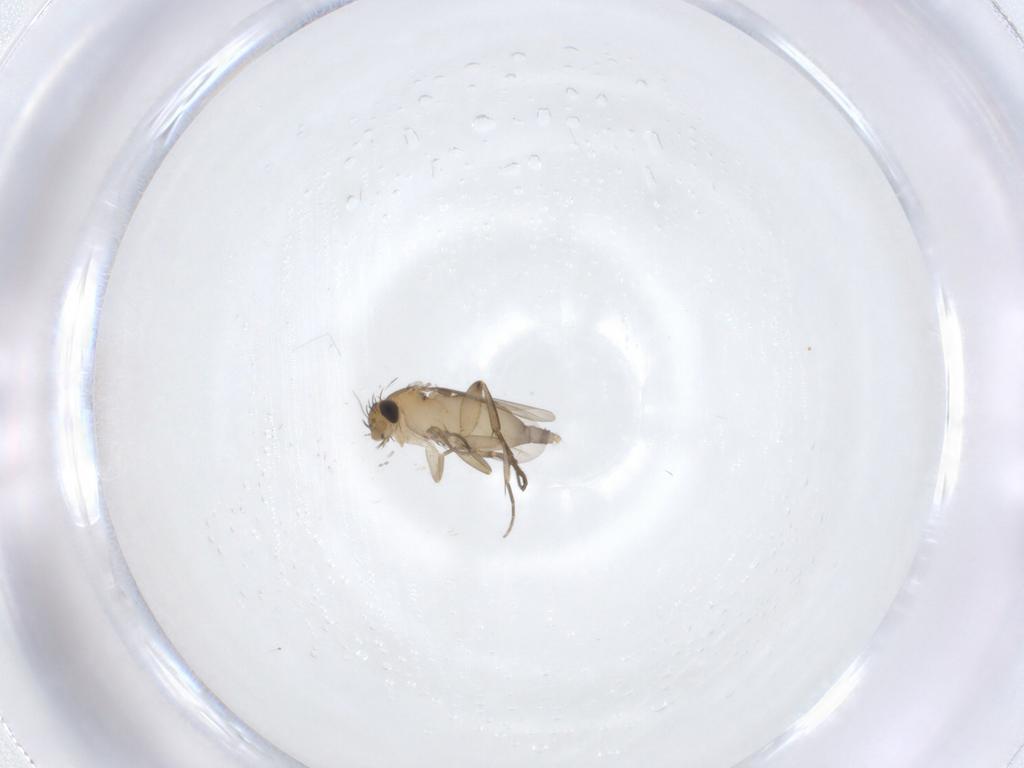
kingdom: Animalia
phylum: Arthropoda
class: Insecta
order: Diptera
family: Phoridae
